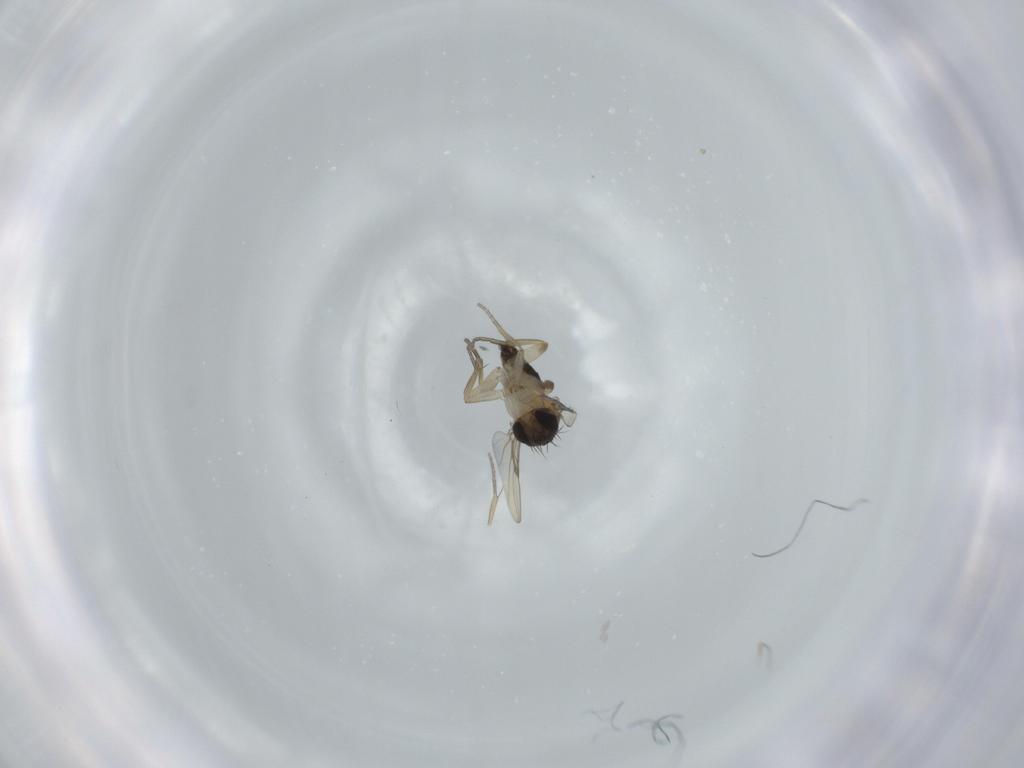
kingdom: Animalia
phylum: Arthropoda
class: Insecta
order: Diptera
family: Phoridae
